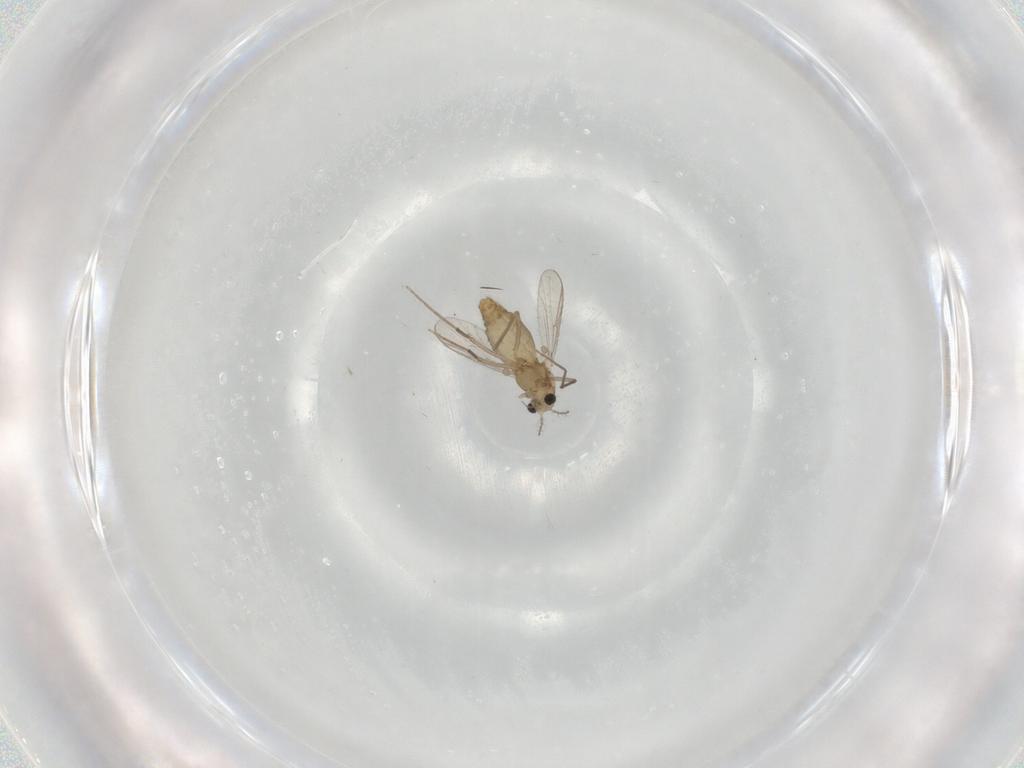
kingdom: Animalia
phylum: Arthropoda
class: Insecta
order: Diptera
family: Chironomidae
